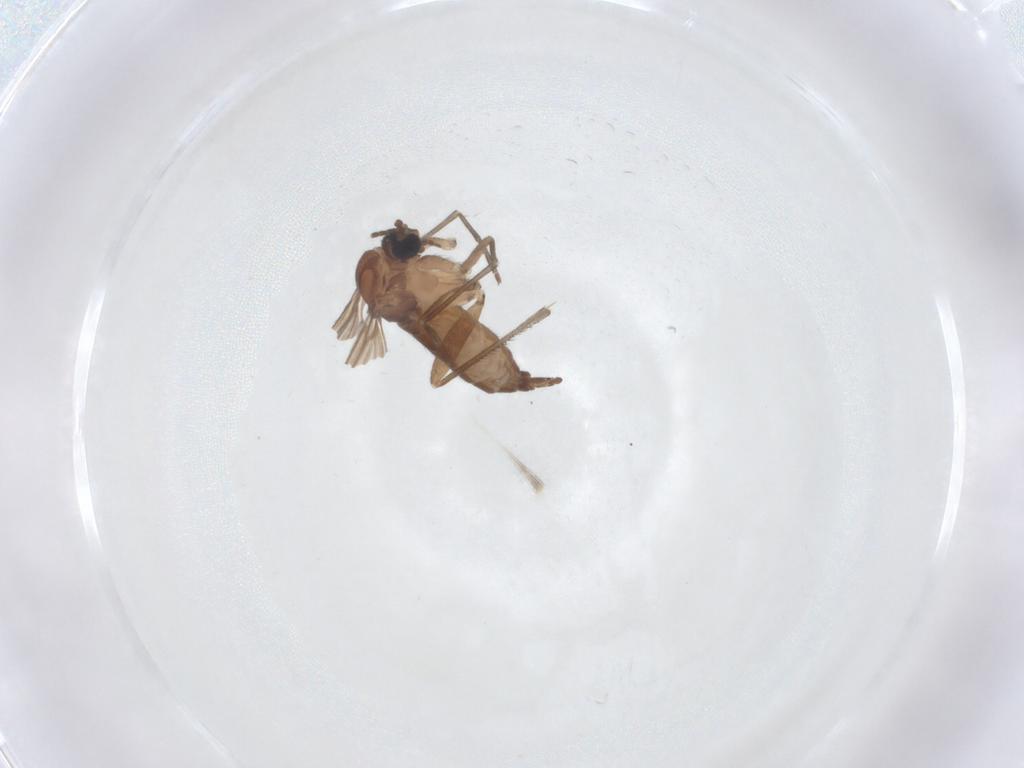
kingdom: Animalia
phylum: Arthropoda
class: Insecta
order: Diptera
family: Sciaridae
